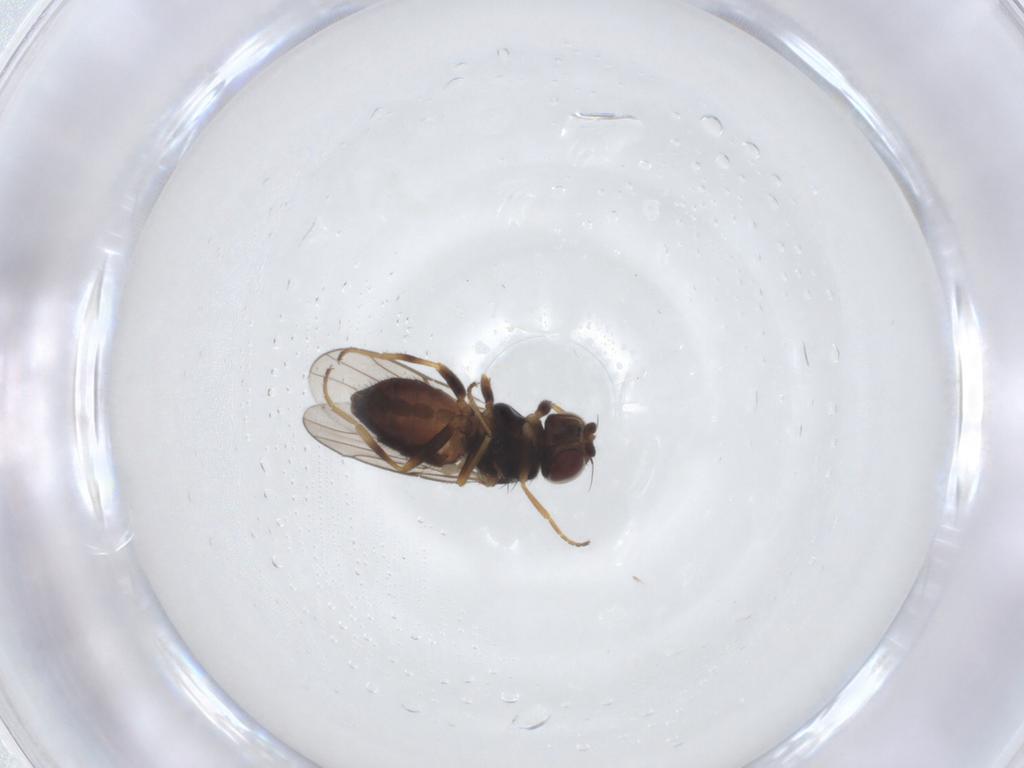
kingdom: Animalia
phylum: Arthropoda
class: Insecta
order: Diptera
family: Chloropidae
